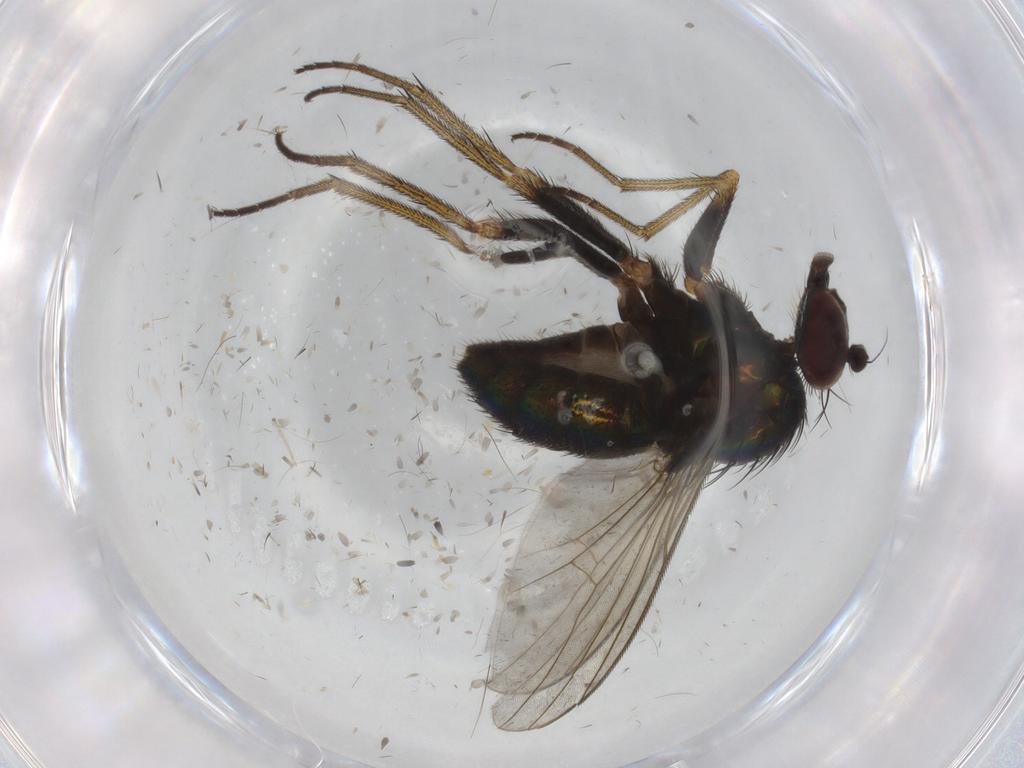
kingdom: Animalia
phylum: Arthropoda
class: Insecta
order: Diptera
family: Dolichopodidae
